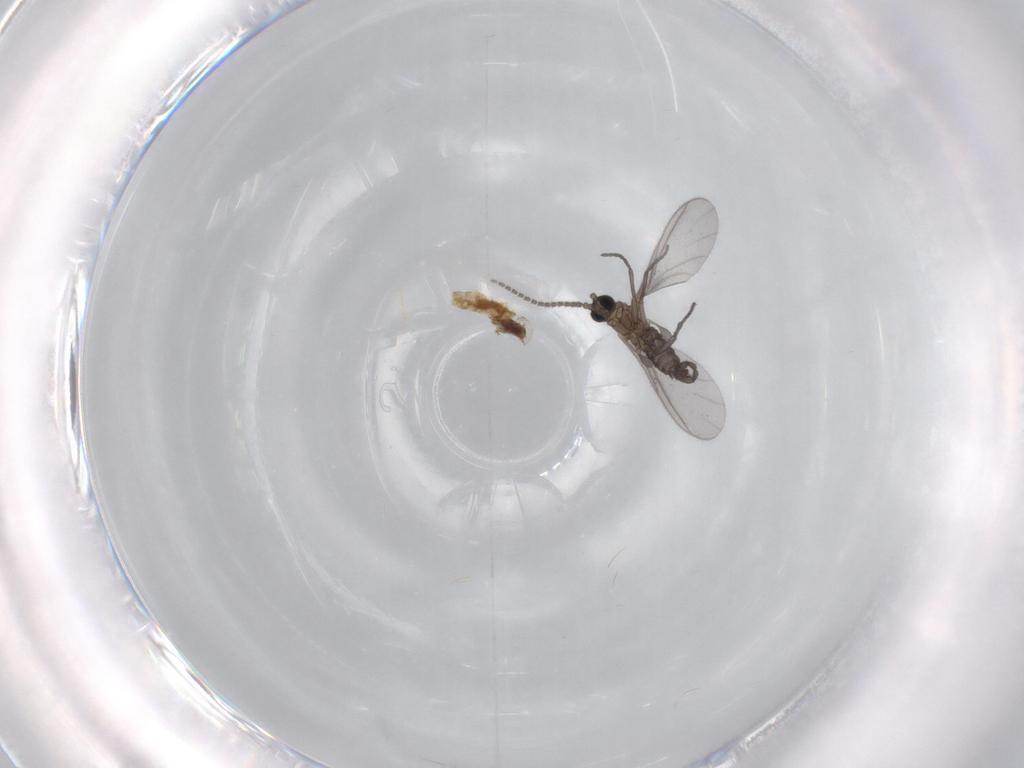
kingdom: Animalia
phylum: Arthropoda
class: Insecta
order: Diptera
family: Sciaridae
